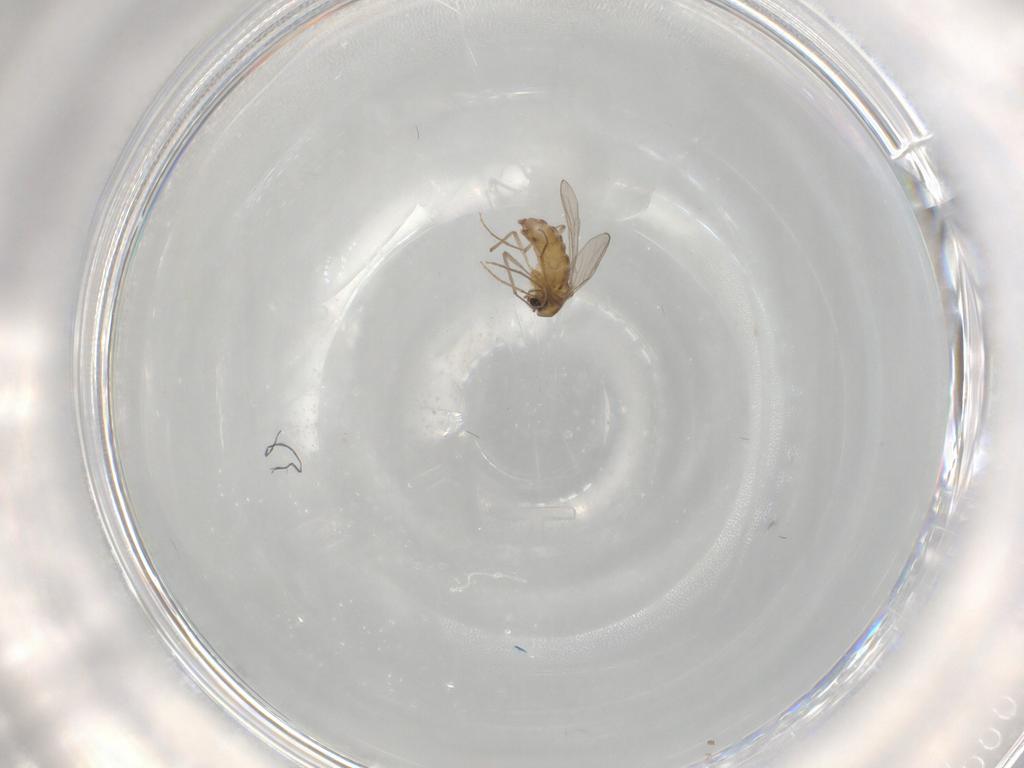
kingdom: Animalia
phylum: Arthropoda
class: Insecta
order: Diptera
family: Chironomidae
